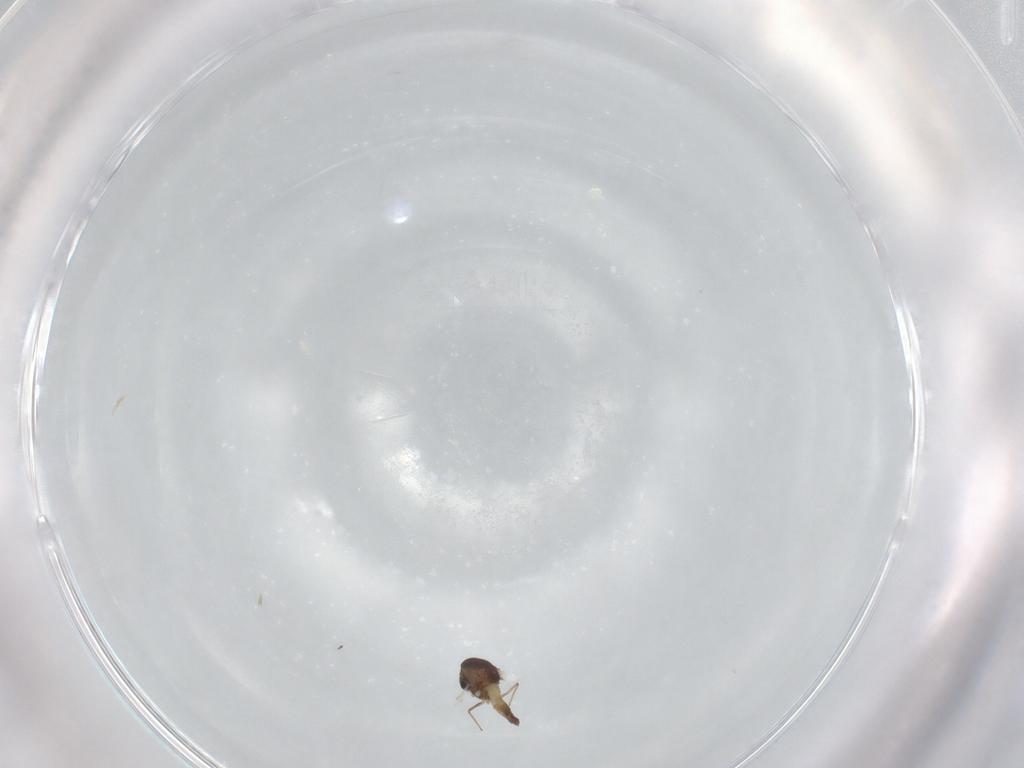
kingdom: Animalia
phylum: Arthropoda
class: Insecta
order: Diptera
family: Chironomidae
